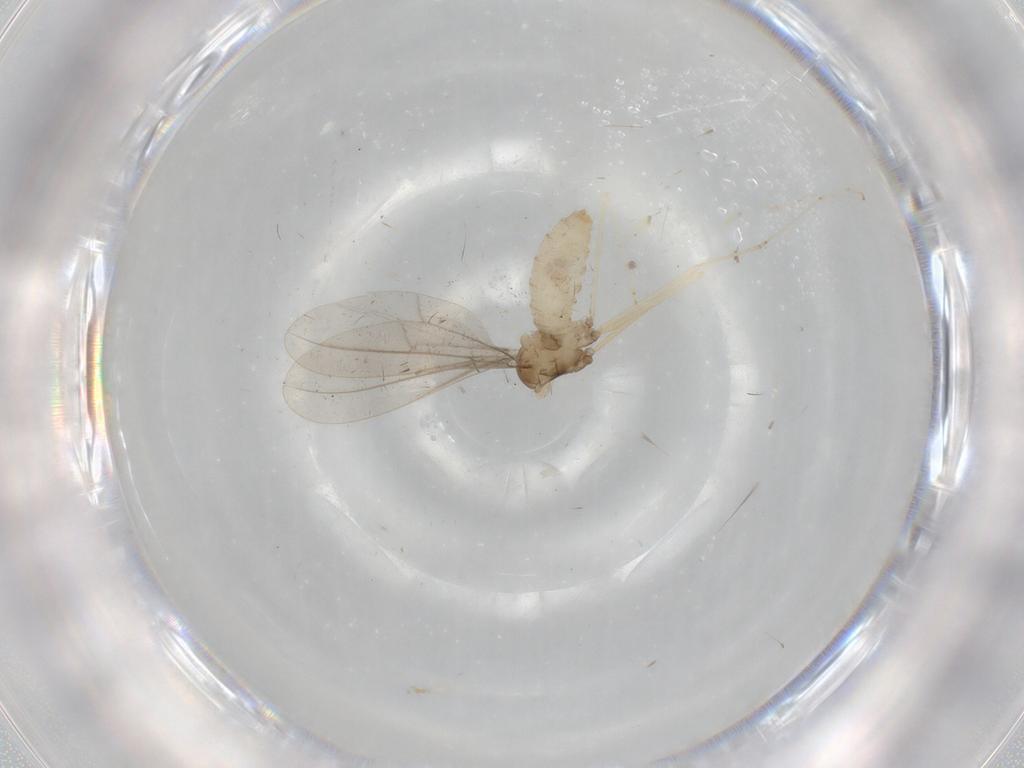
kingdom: Animalia
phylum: Arthropoda
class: Insecta
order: Diptera
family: Cecidomyiidae
